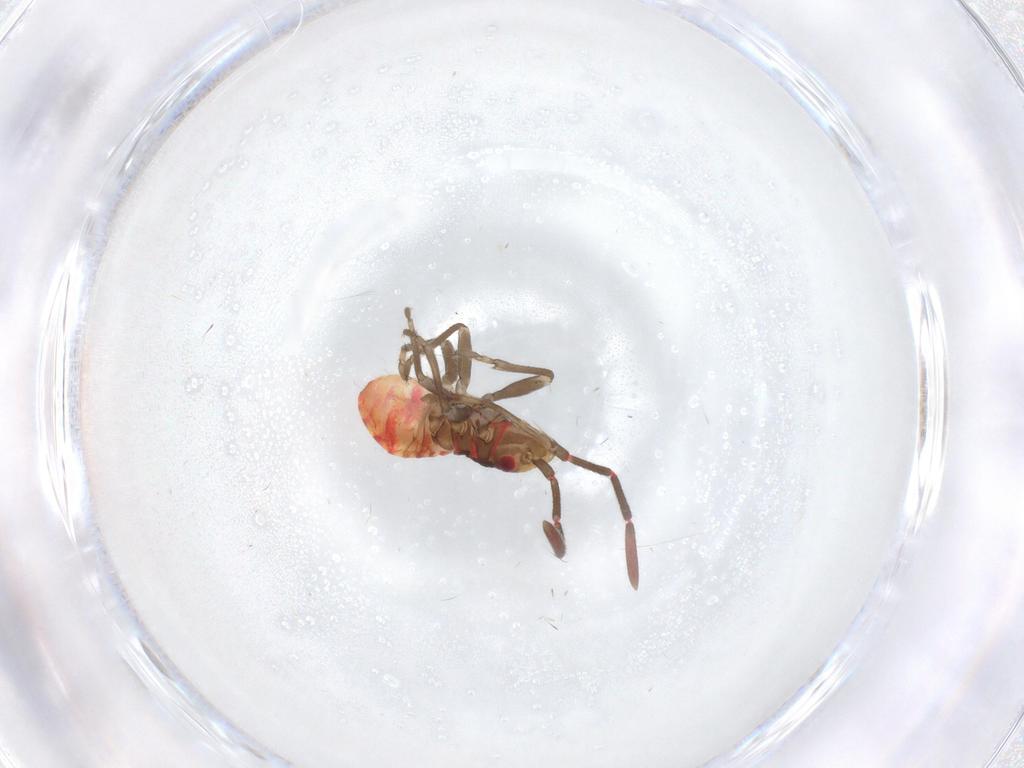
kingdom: Animalia
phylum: Arthropoda
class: Insecta
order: Hemiptera
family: Rhyparochromidae
